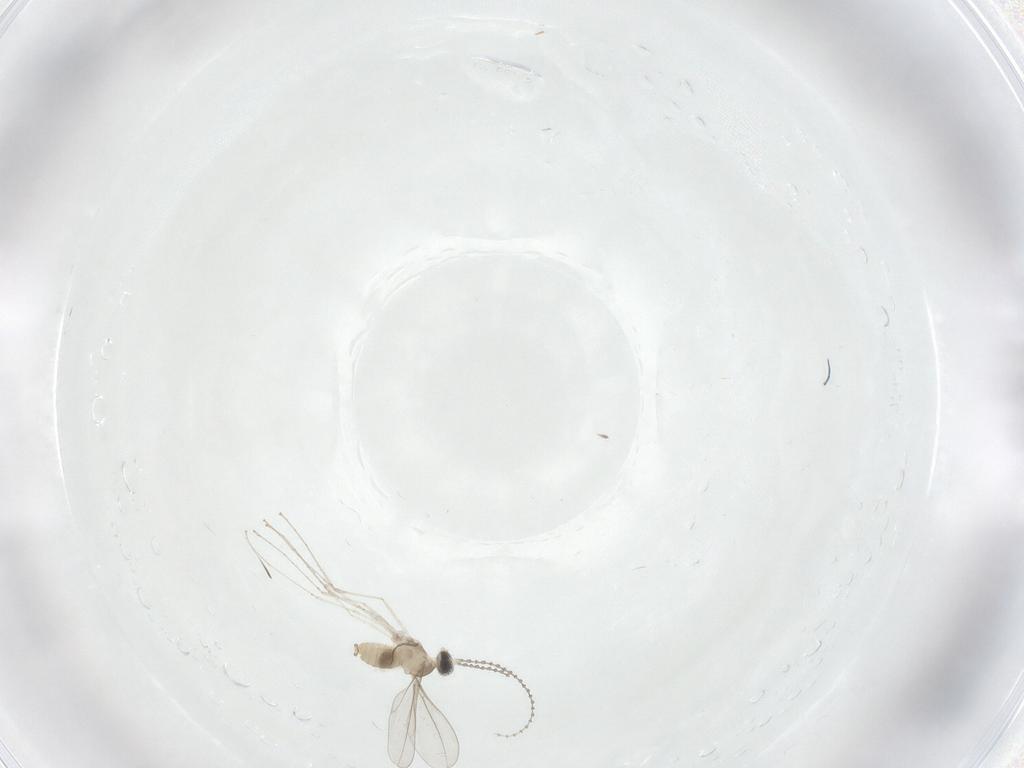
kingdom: Animalia
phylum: Arthropoda
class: Insecta
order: Diptera
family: Cecidomyiidae
